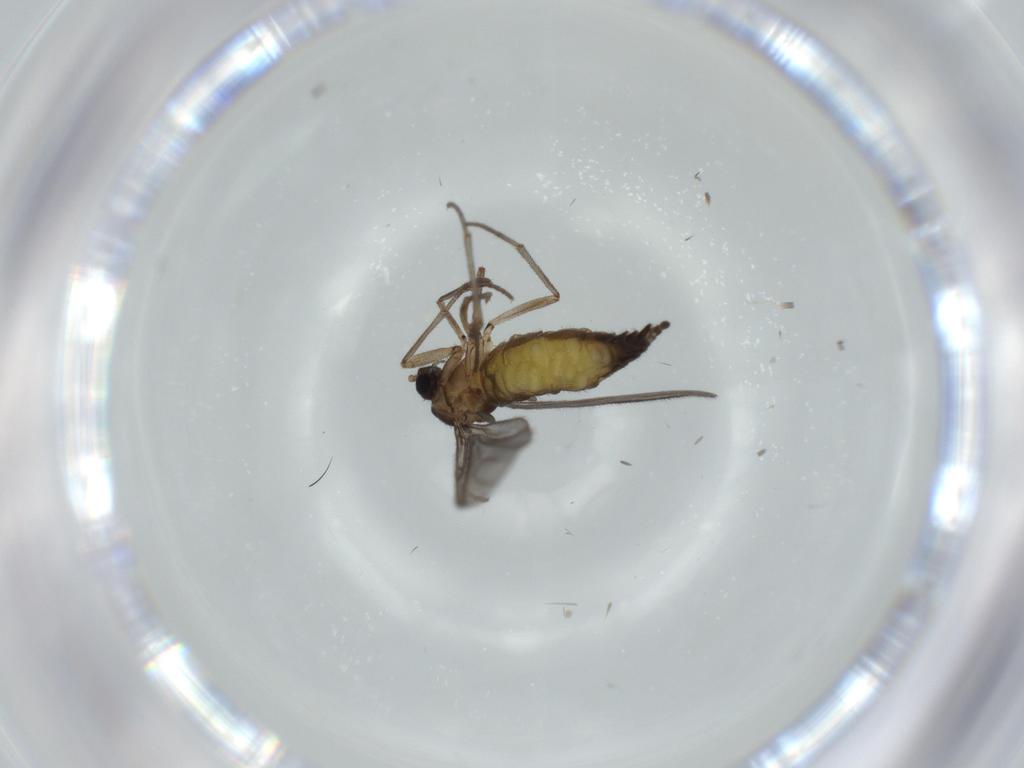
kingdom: Animalia
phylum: Arthropoda
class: Insecta
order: Diptera
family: Sciaridae
